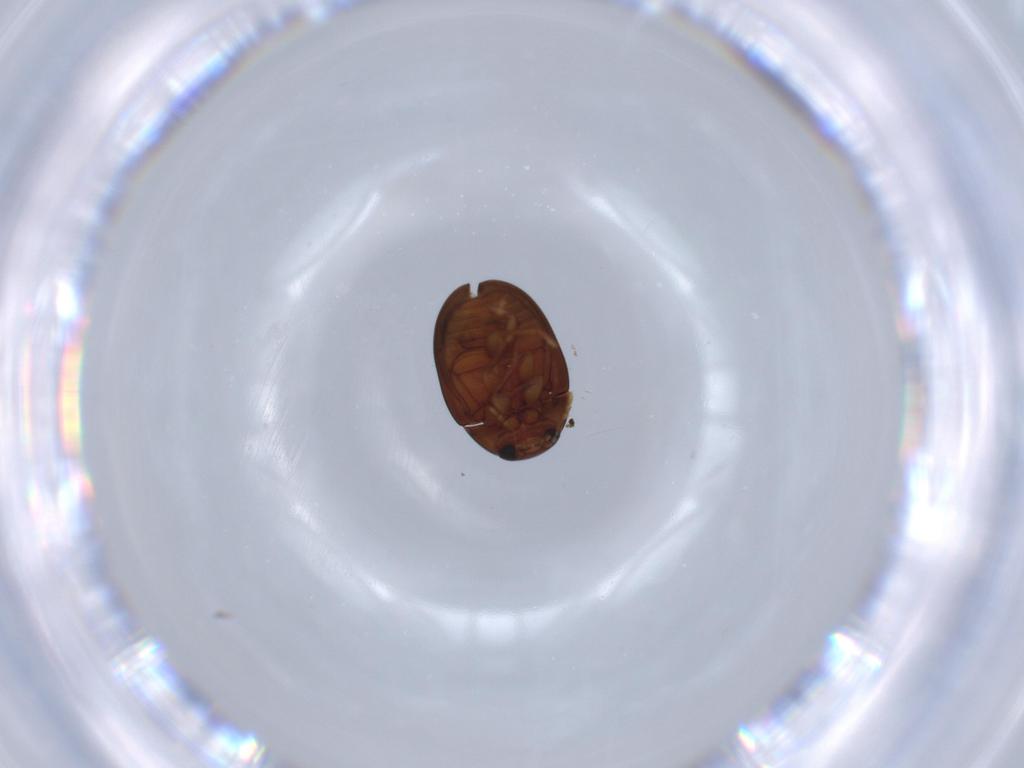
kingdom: Animalia
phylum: Arthropoda
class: Insecta
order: Coleoptera
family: Phalacridae
